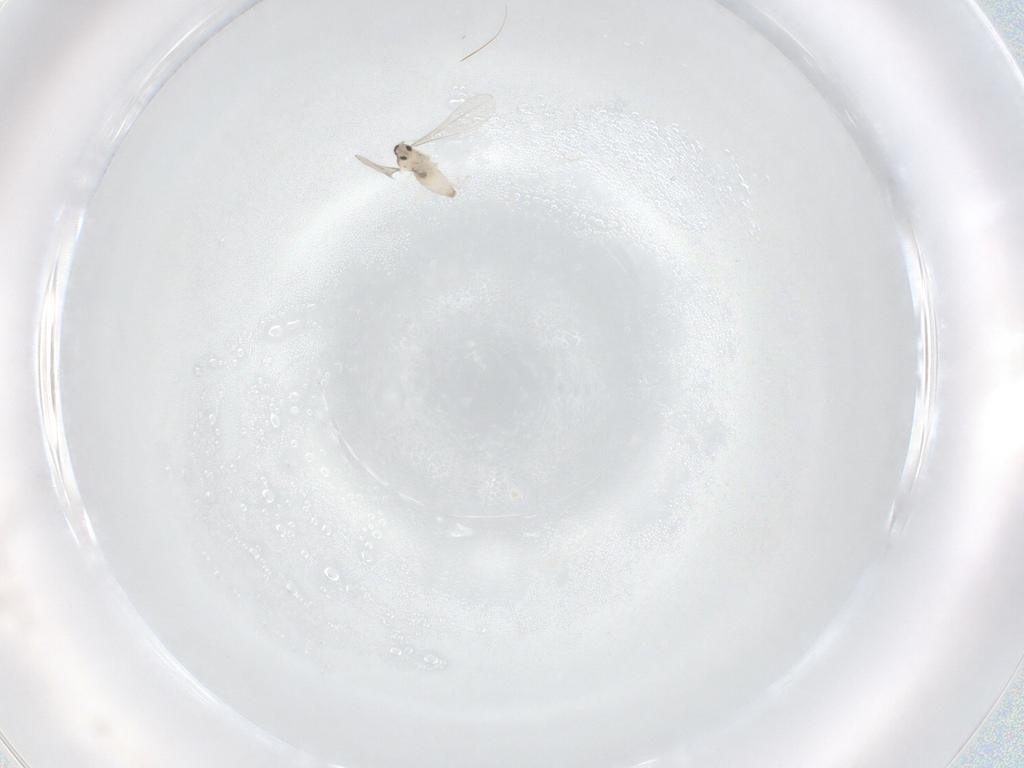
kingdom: Animalia
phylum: Arthropoda
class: Insecta
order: Diptera
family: Cecidomyiidae
